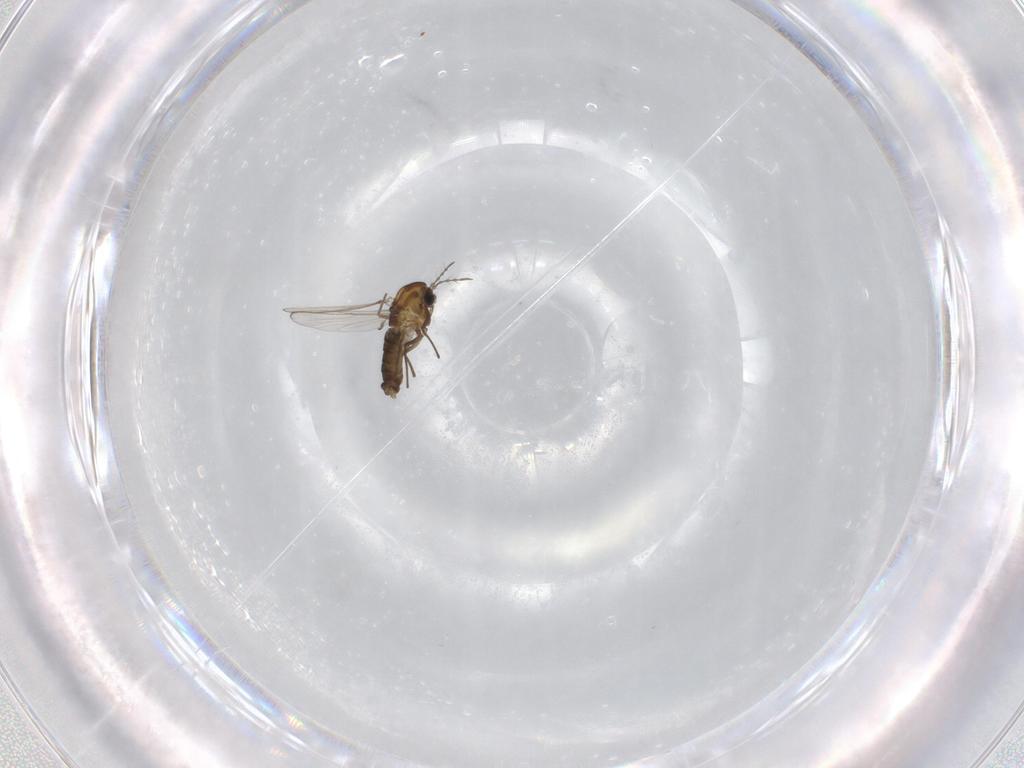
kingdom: Animalia
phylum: Arthropoda
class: Insecta
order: Diptera
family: Chironomidae
